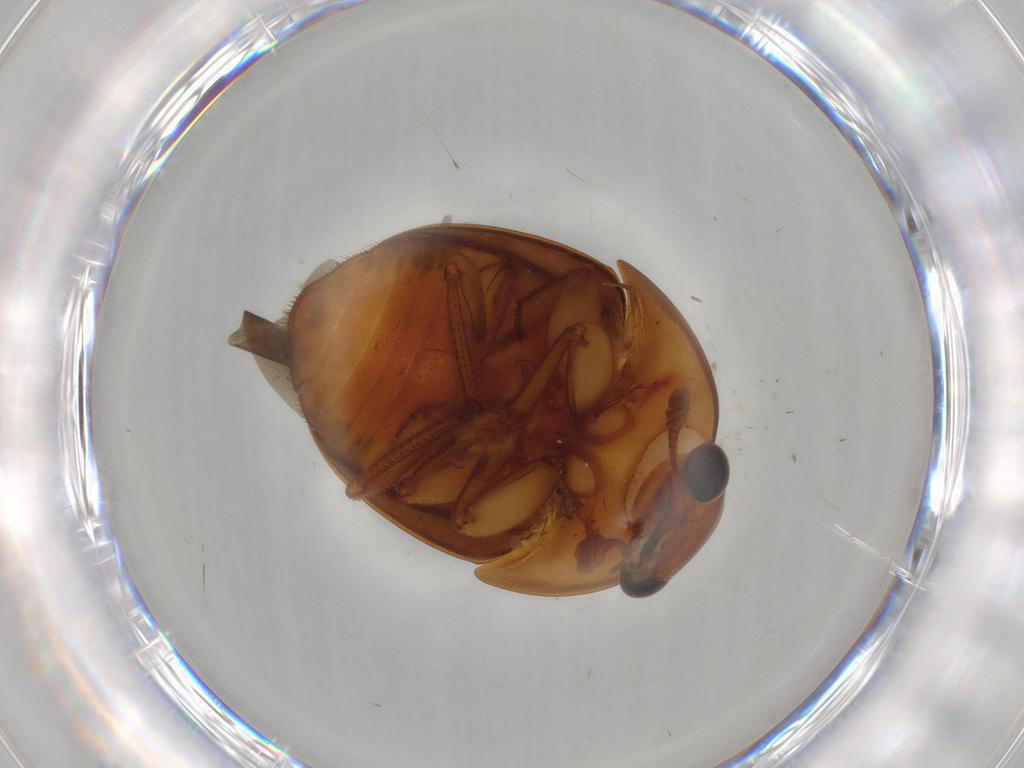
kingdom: Animalia
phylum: Arthropoda
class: Insecta
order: Coleoptera
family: Nitidulidae
